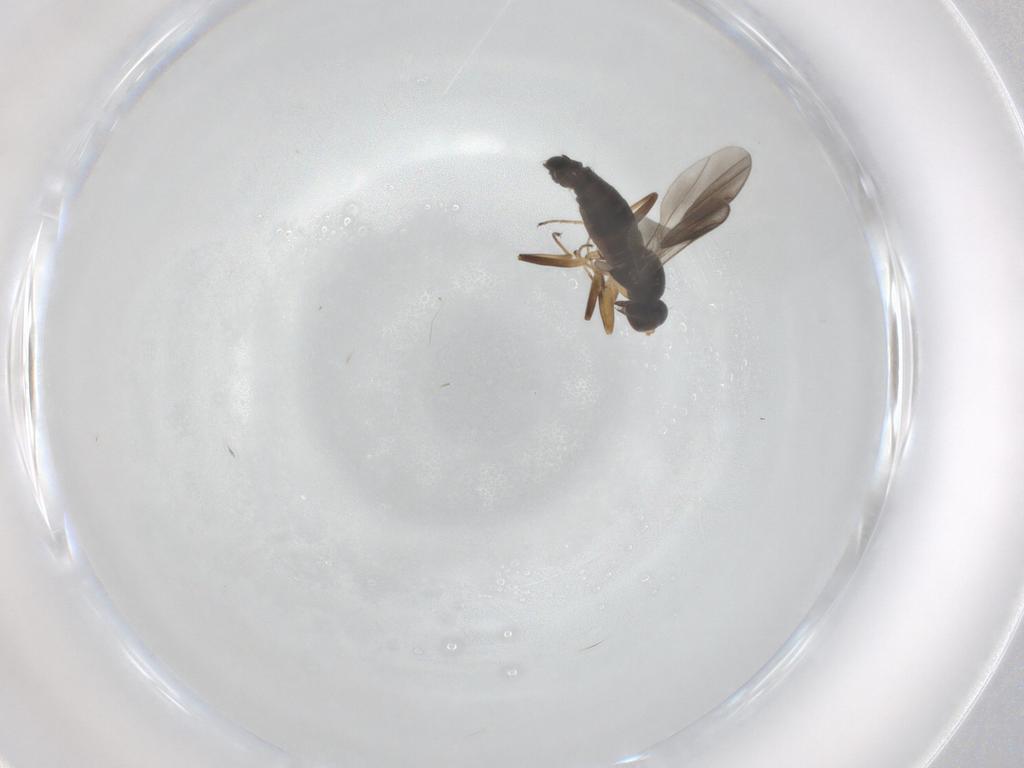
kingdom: Animalia
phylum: Arthropoda
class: Insecta
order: Diptera
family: Hybotidae
